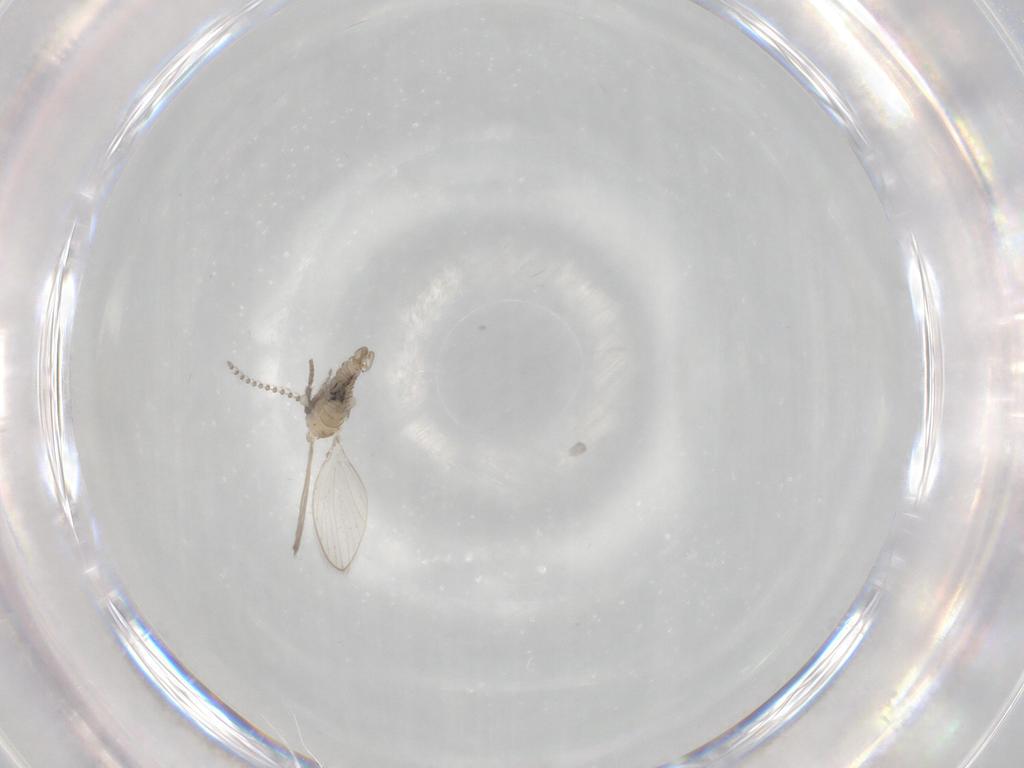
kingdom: Animalia
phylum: Arthropoda
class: Insecta
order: Diptera
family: Psychodidae
